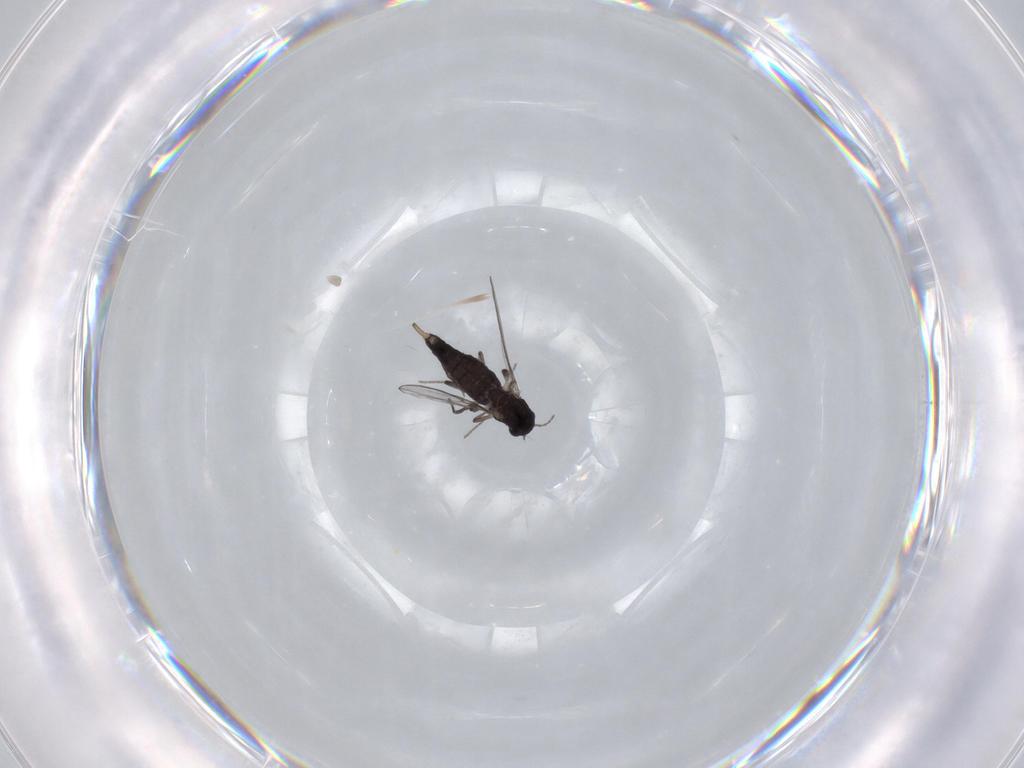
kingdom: Animalia
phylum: Arthropoda
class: Insecta
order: Diptera
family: Chironomidae
